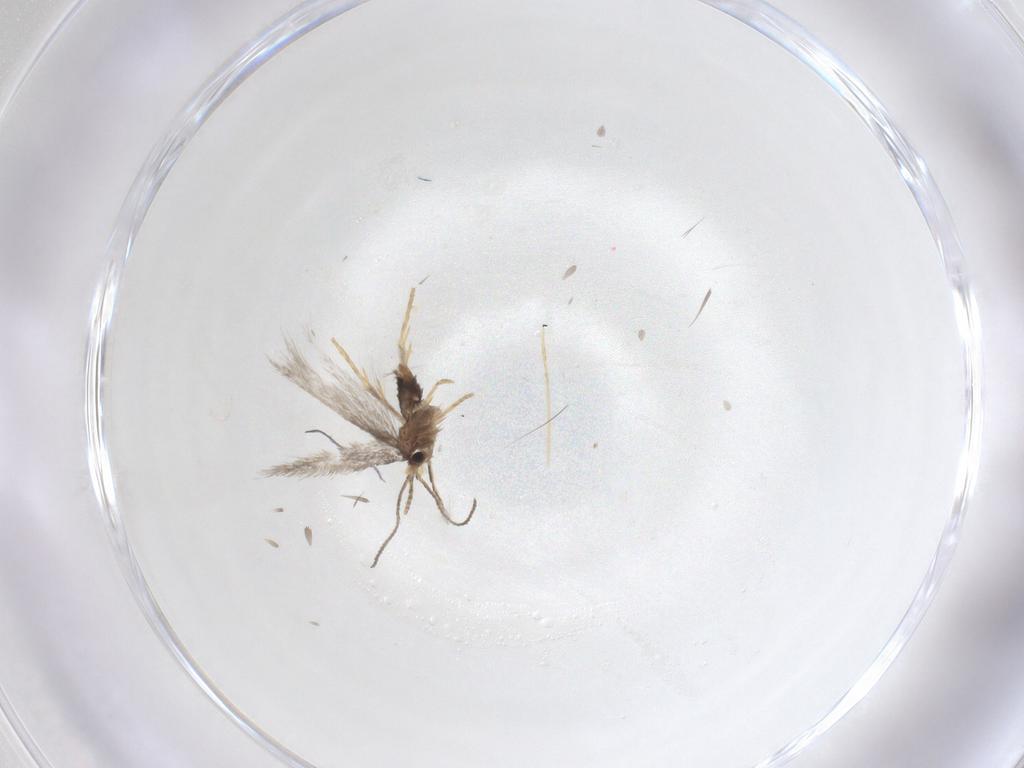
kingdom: Animalia
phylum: Arthropoda
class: Insecta
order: Lepidoptera
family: Nepticulidae
